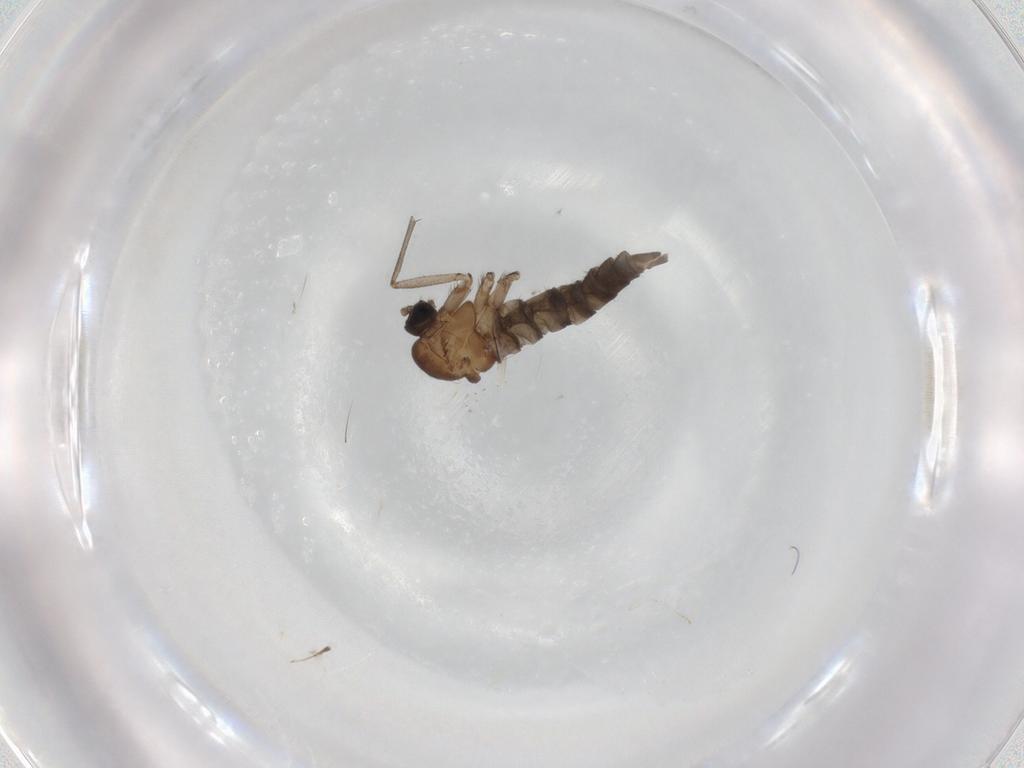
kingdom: Animalia
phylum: Arthropoda
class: Insecta
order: Diptera
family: Sciaridae
